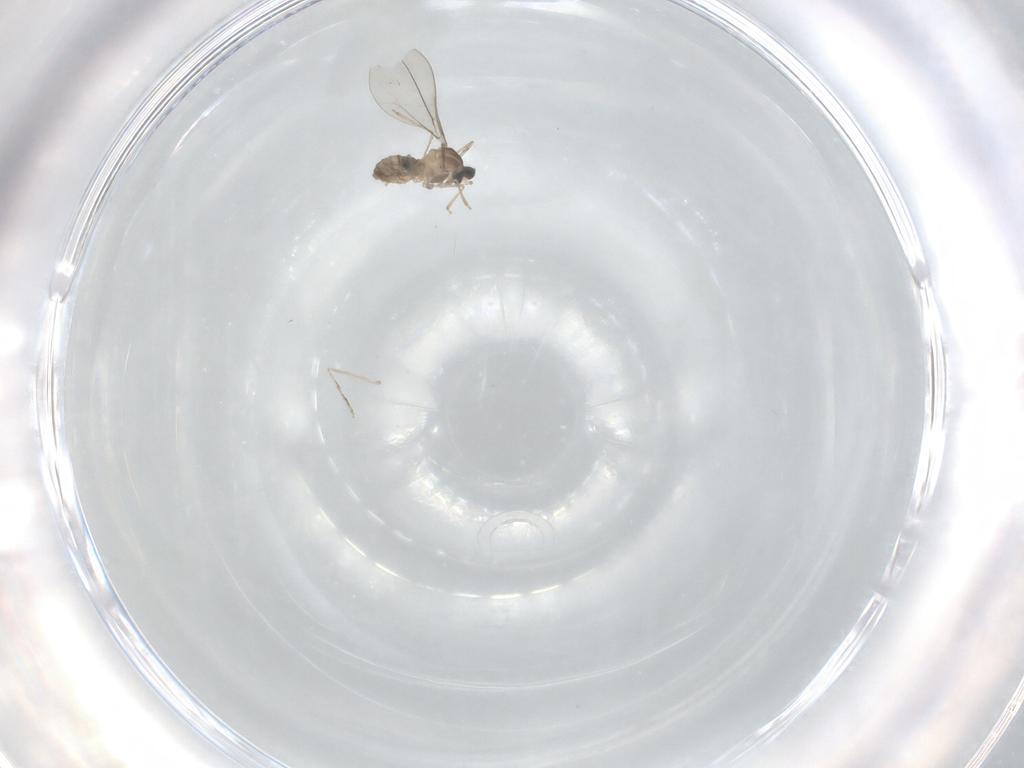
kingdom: Animalia
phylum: Arthropoda
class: Insecta
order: Diptera
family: Cecidomyiidae
